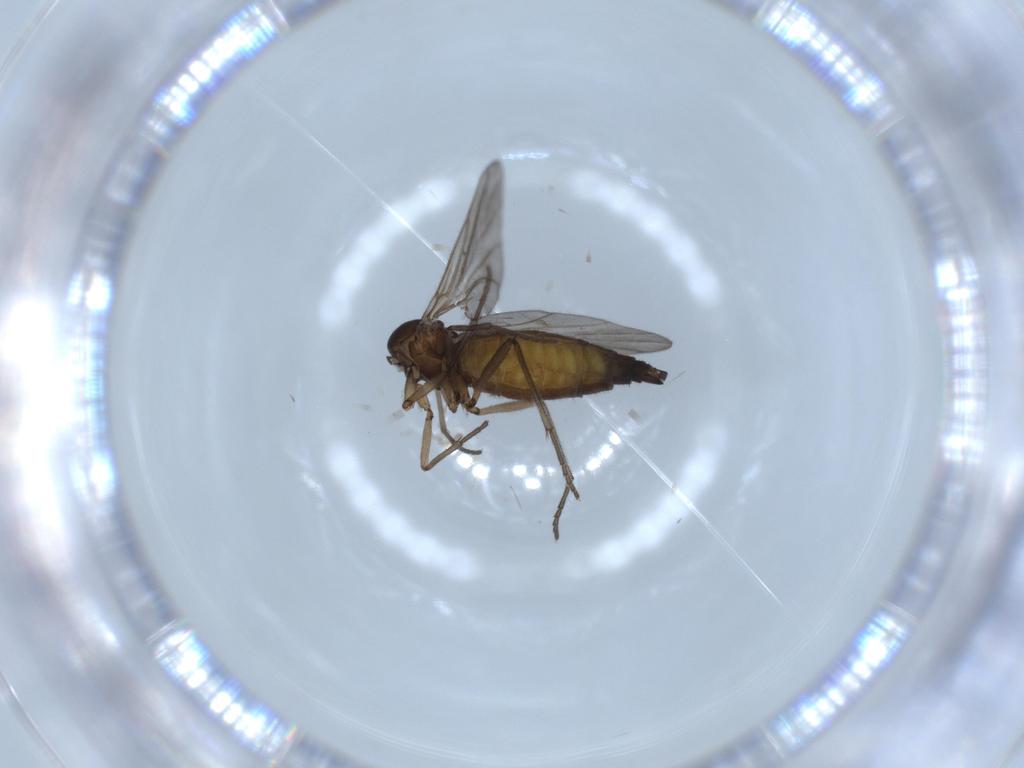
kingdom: Animalia
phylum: Arthropoda
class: Insecta
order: Diptera
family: Sciaridae
